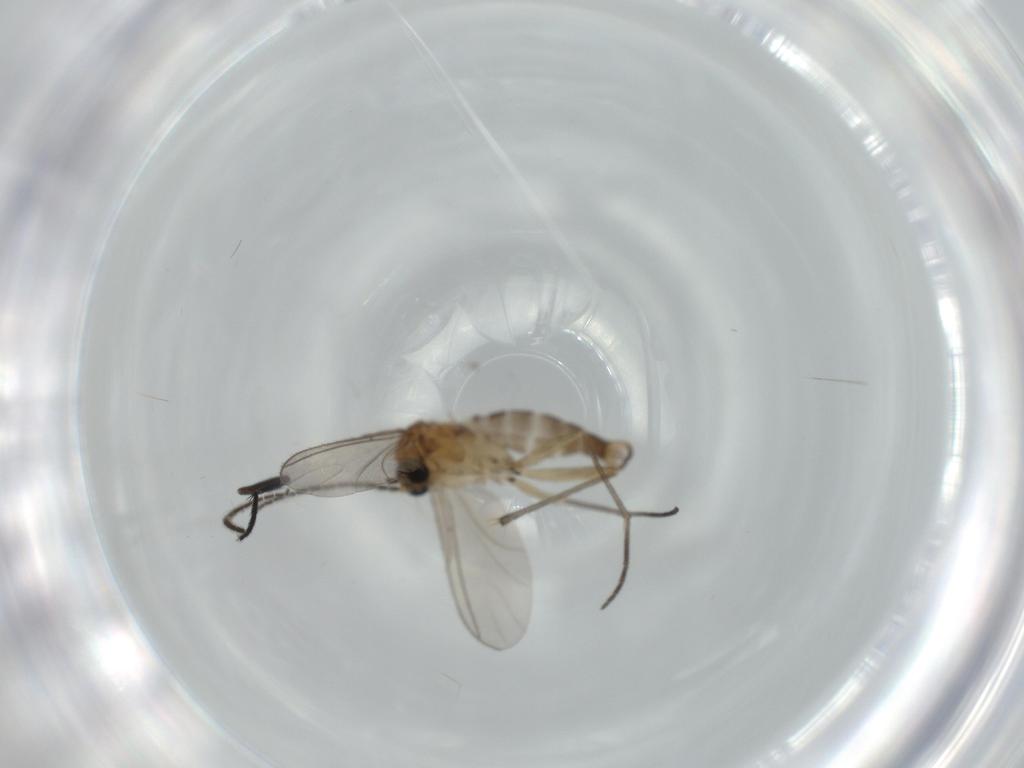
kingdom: Animalia
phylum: Arthropoda
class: Insecta
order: Diptera
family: Sciaridae
